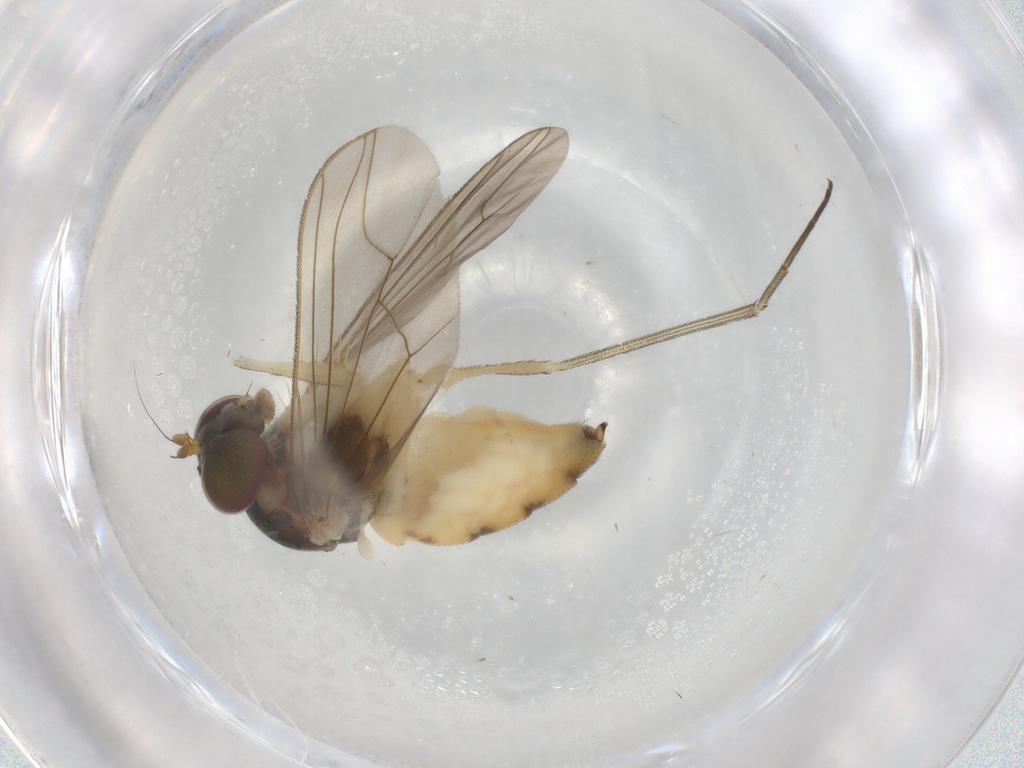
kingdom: Animalia
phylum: Arthropoda
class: Insecta
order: Diptera
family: Dolichopodidae
